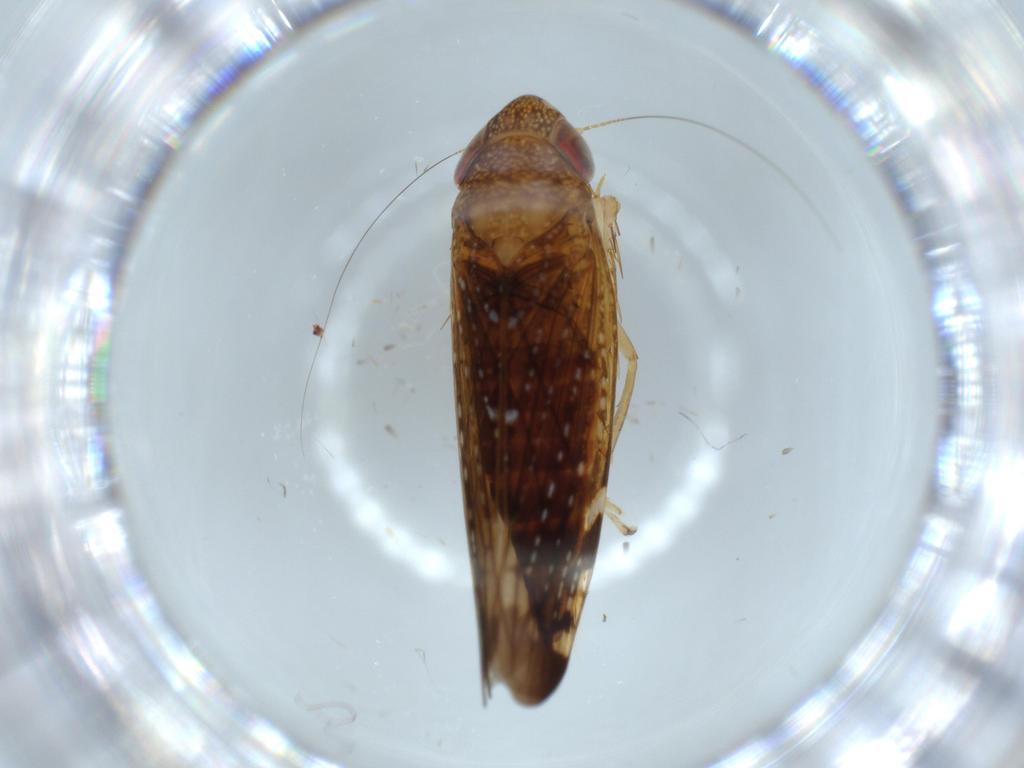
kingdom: Animalia
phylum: Arthropoda
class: Insecta
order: Hemiptera
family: Cicadellidae
